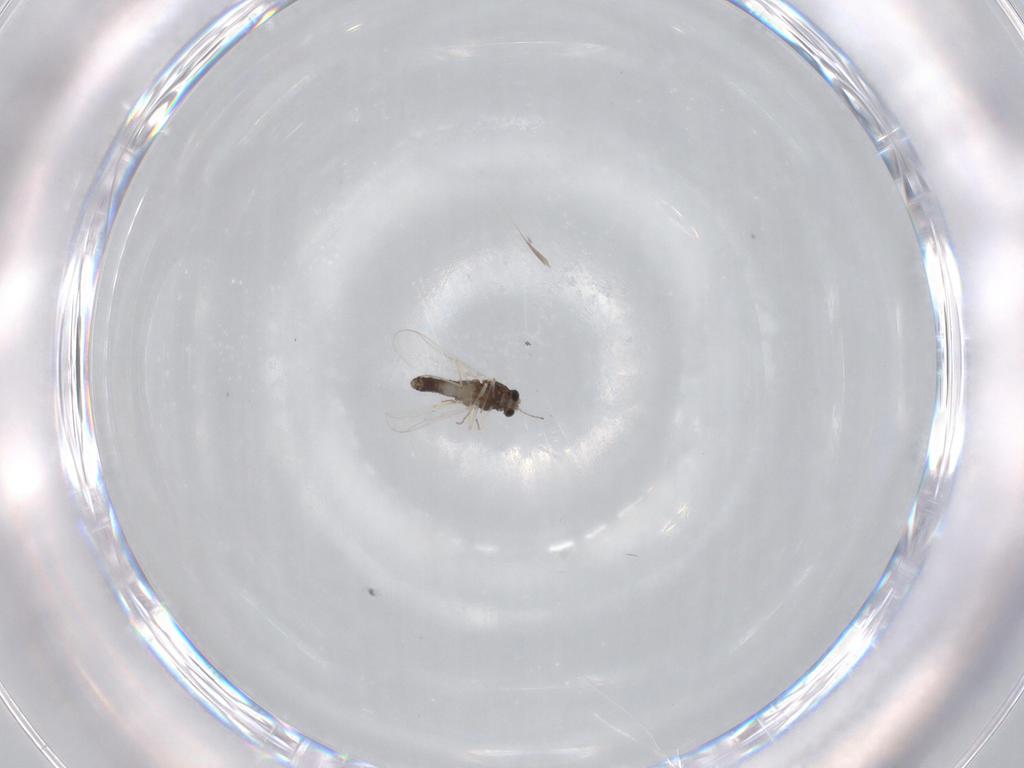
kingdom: Animalia
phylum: Arthropoda
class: Insecta
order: Diptera
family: Chironomidae
